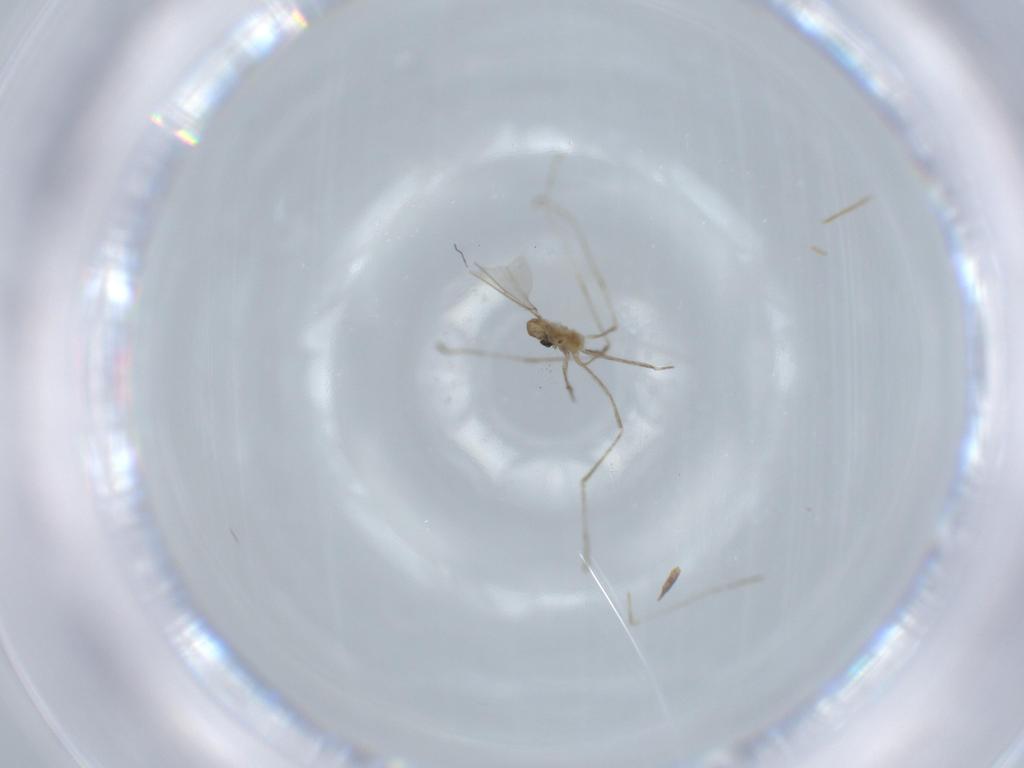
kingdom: Animalia
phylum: Arthropoda
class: Insecta
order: Diptera
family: Cecidomyiidae
